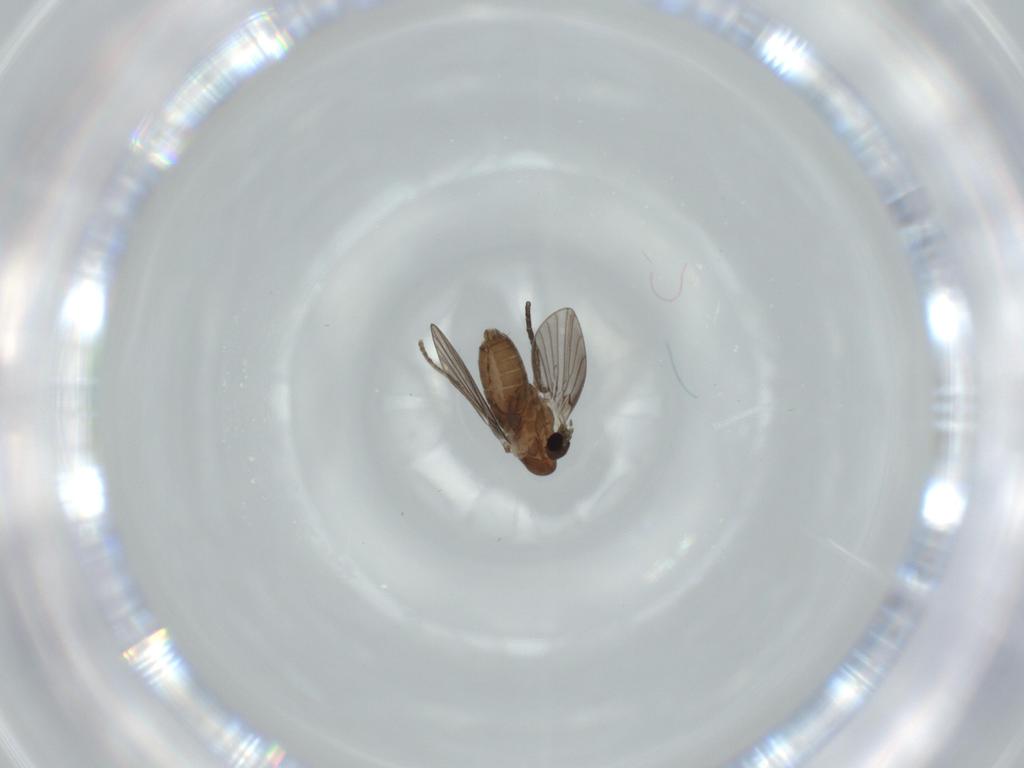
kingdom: Animalia
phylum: Arthropoda
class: Insecta
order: Diptera
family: Psychodidae
